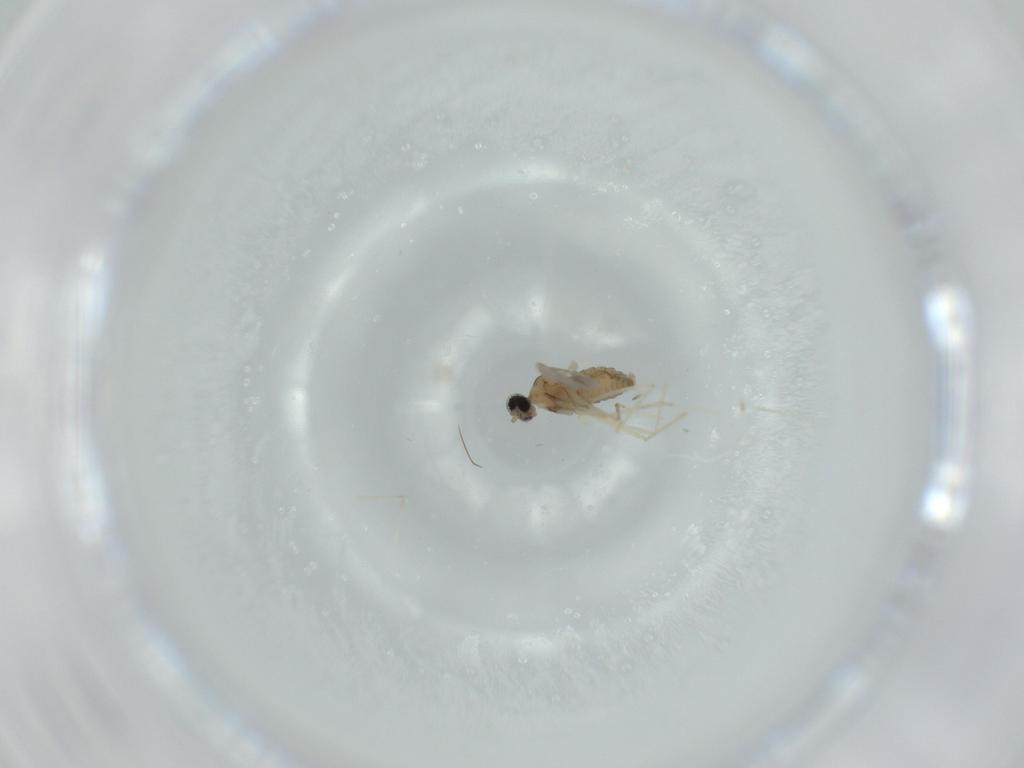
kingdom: Animalia
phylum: Arthropoda
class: Insecta
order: Diptera
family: Cecidomyiidae
